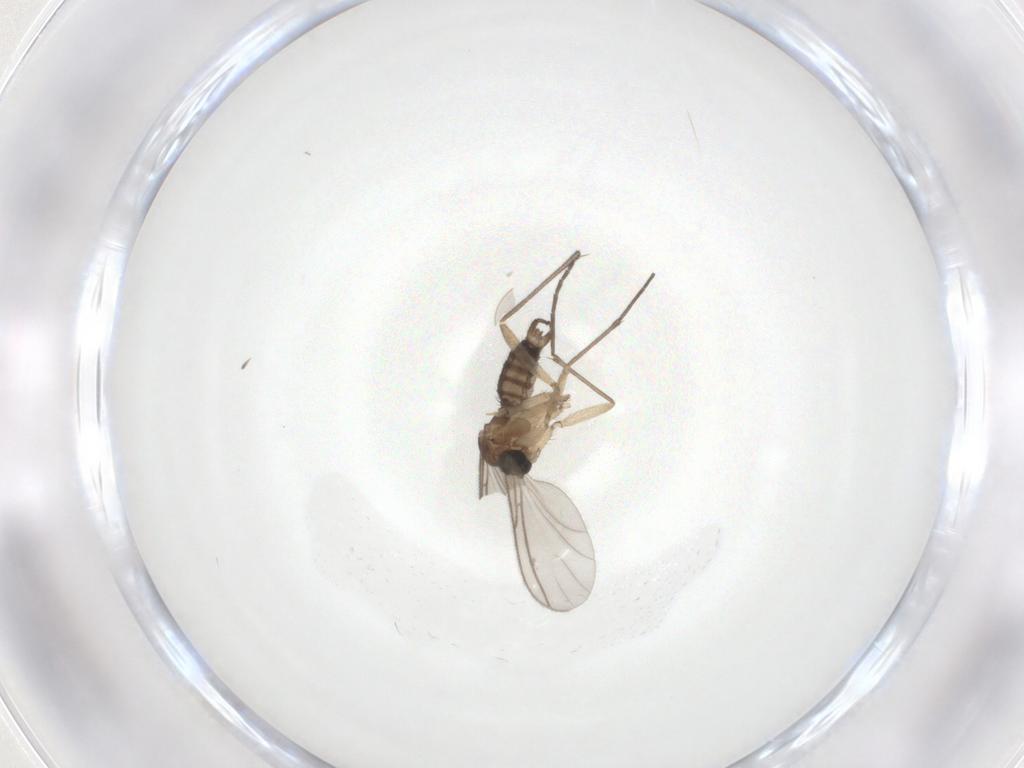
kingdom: Animalia
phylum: Arthropoda
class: Insecta
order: Diptera
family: Sciaridae
